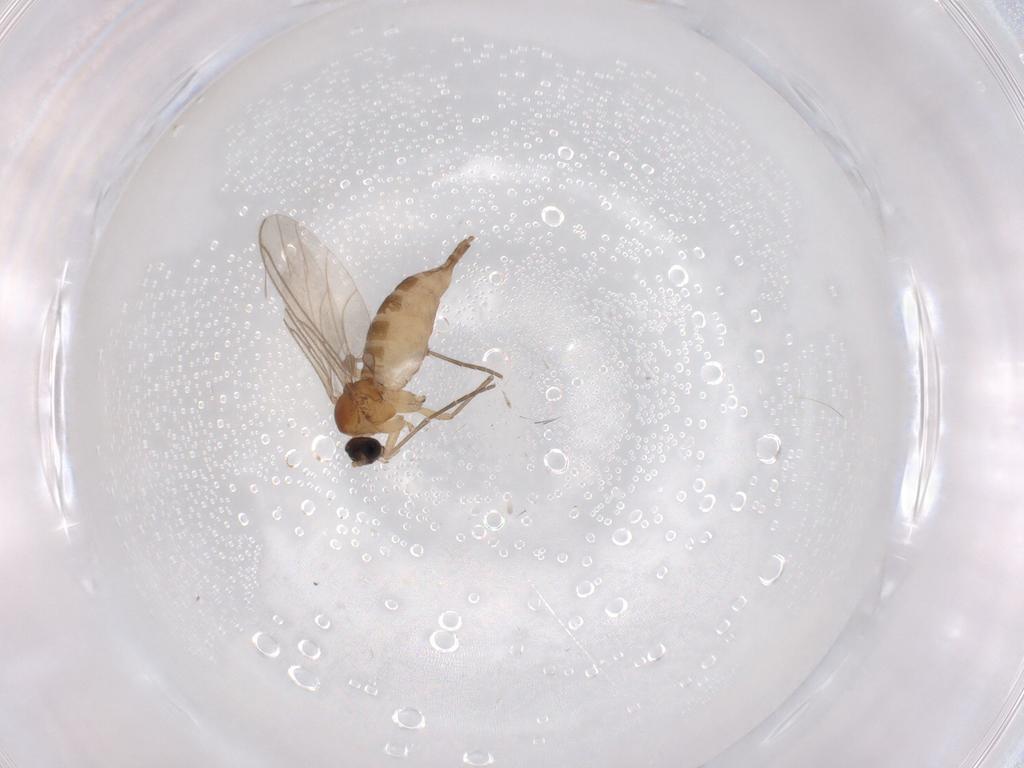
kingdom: Animalia
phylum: Arthropoda
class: Insecta
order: Diptera
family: Sciaridae
